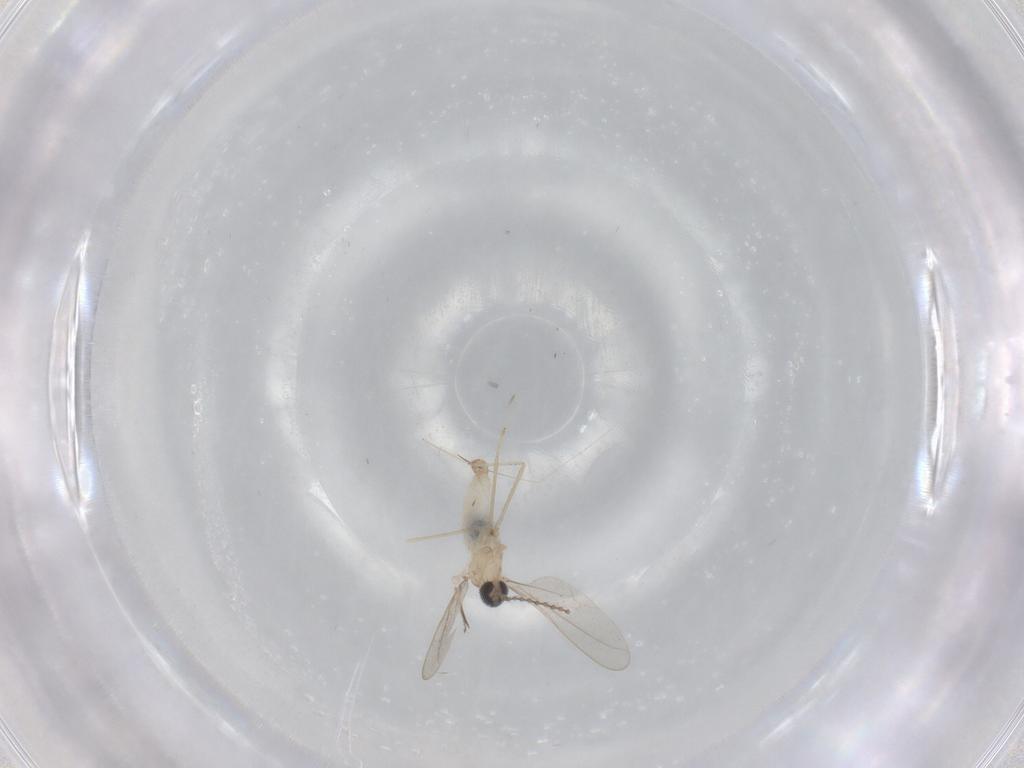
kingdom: Animalia
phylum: Arthropoda
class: Insecta
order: Diptera
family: Cecidomyiidae
